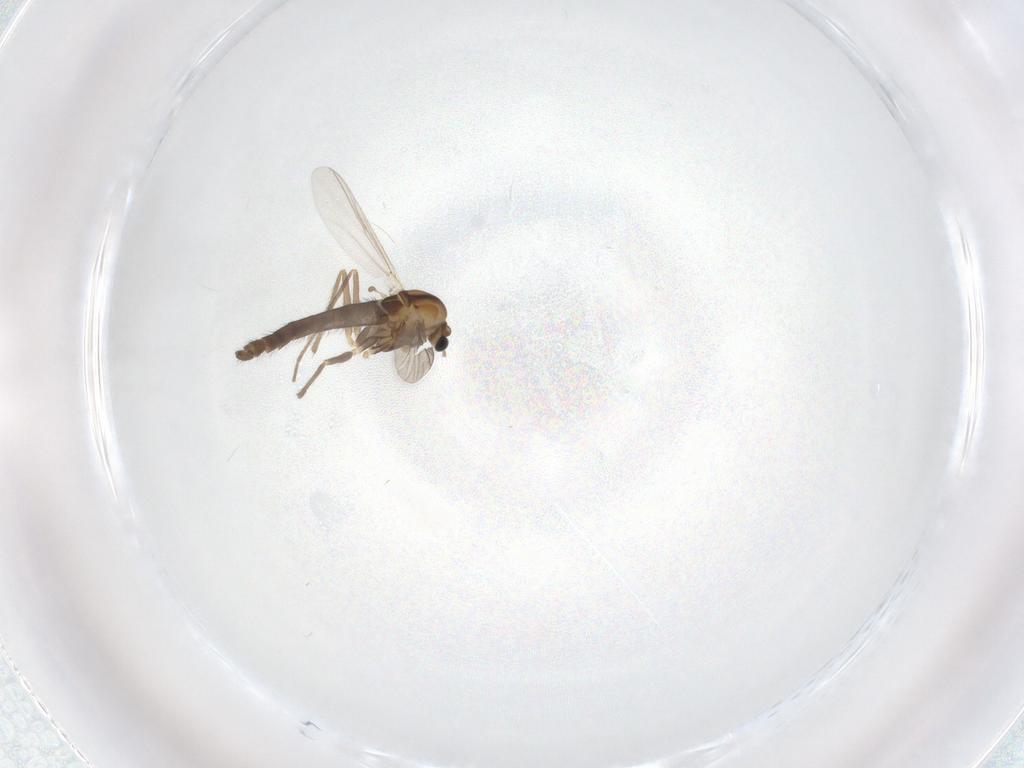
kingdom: Animalia
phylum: Arthropoda
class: Insecta
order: Diptera
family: Chironomidae
